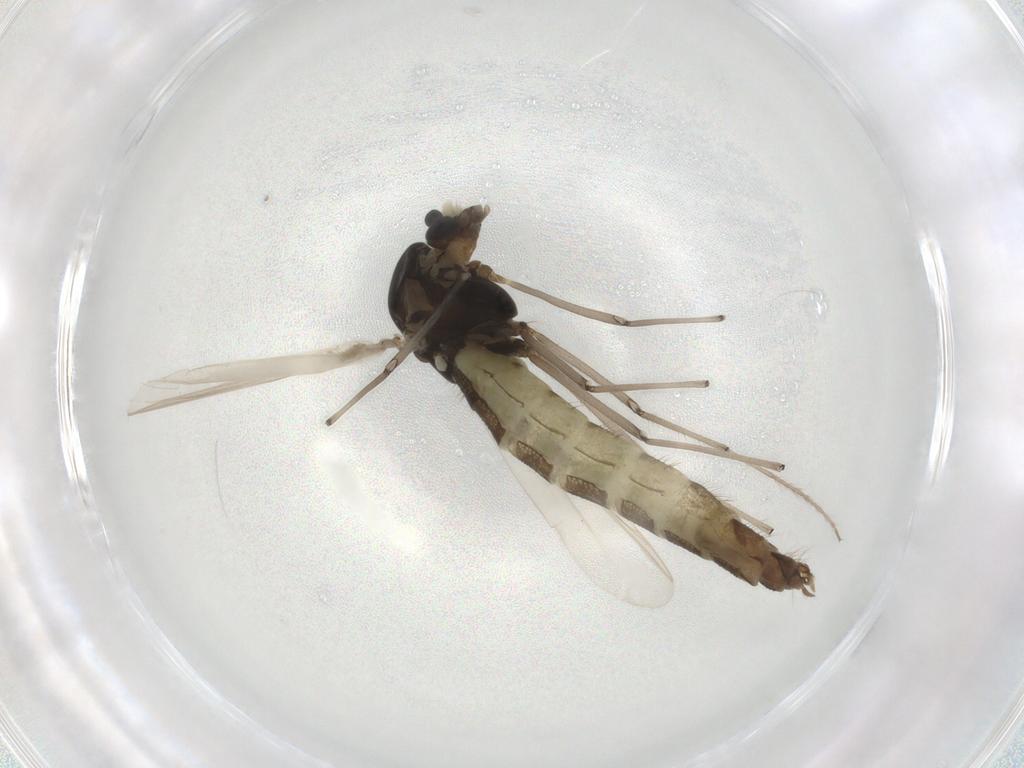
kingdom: Animalia
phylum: Arthropoda
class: Insecta
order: Diptera
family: Chironomidae
